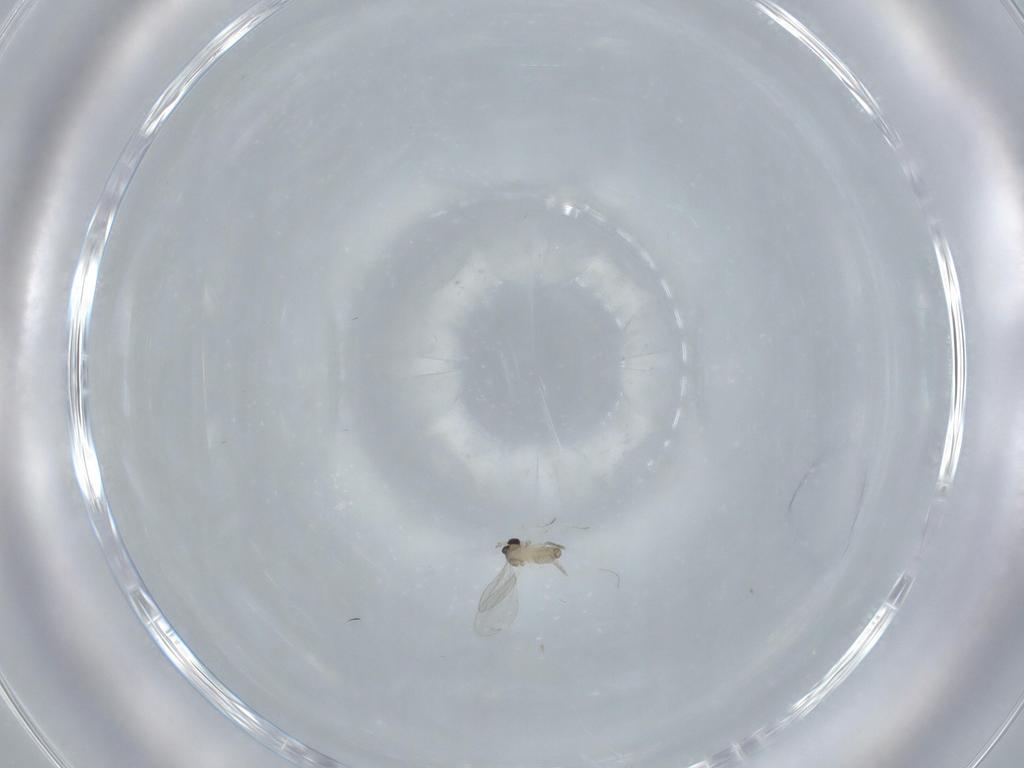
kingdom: Animalia
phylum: Arthropoda
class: Insecta
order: Diptera
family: Cecidomyiidae
